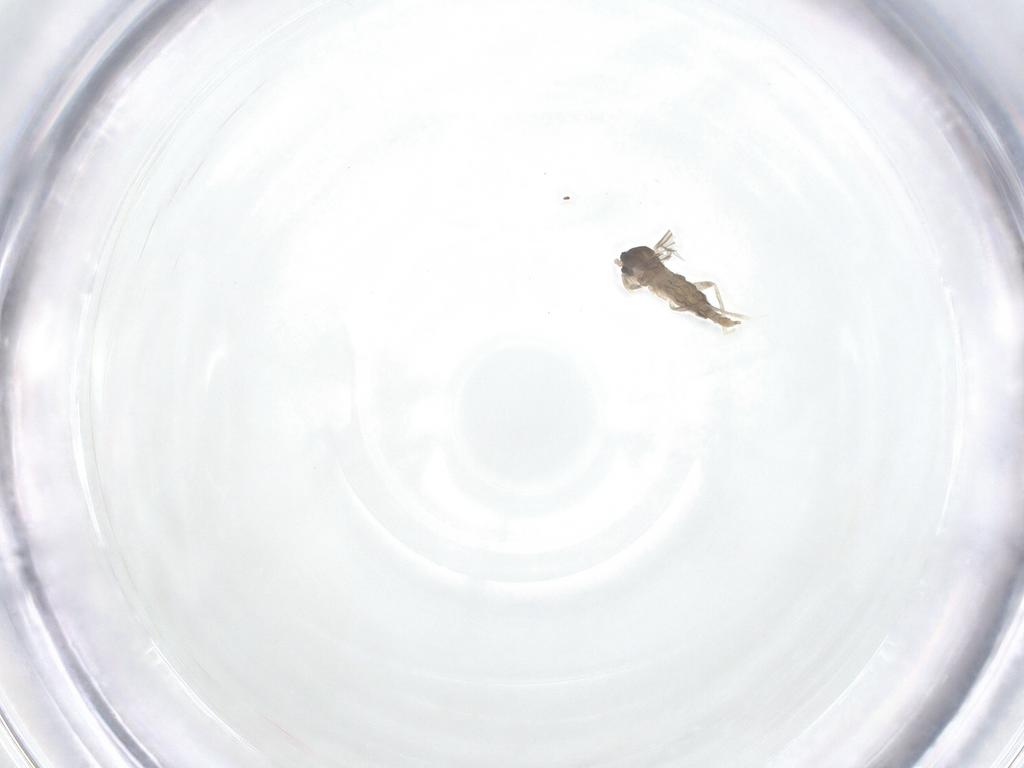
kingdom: Animalia
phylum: Arthropoda
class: Insecta
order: Diptera
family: Cecidomyiidae
